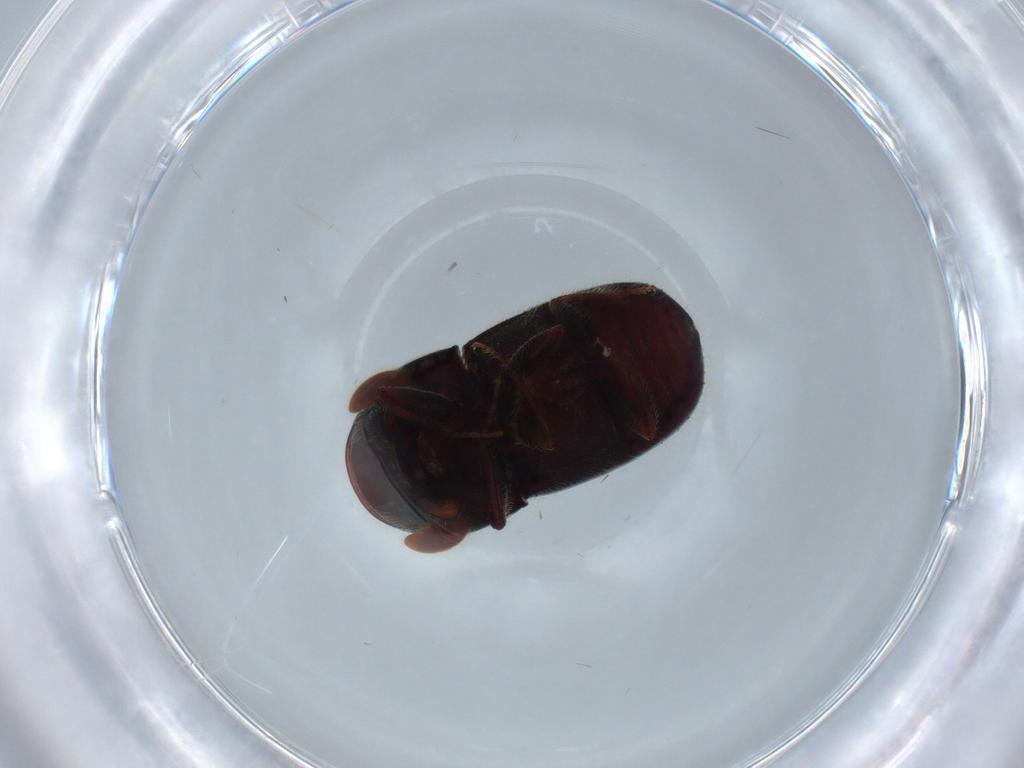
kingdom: Animalia
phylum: Arthropoda
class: Insecta
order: Coleoptera
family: Curculionidae
